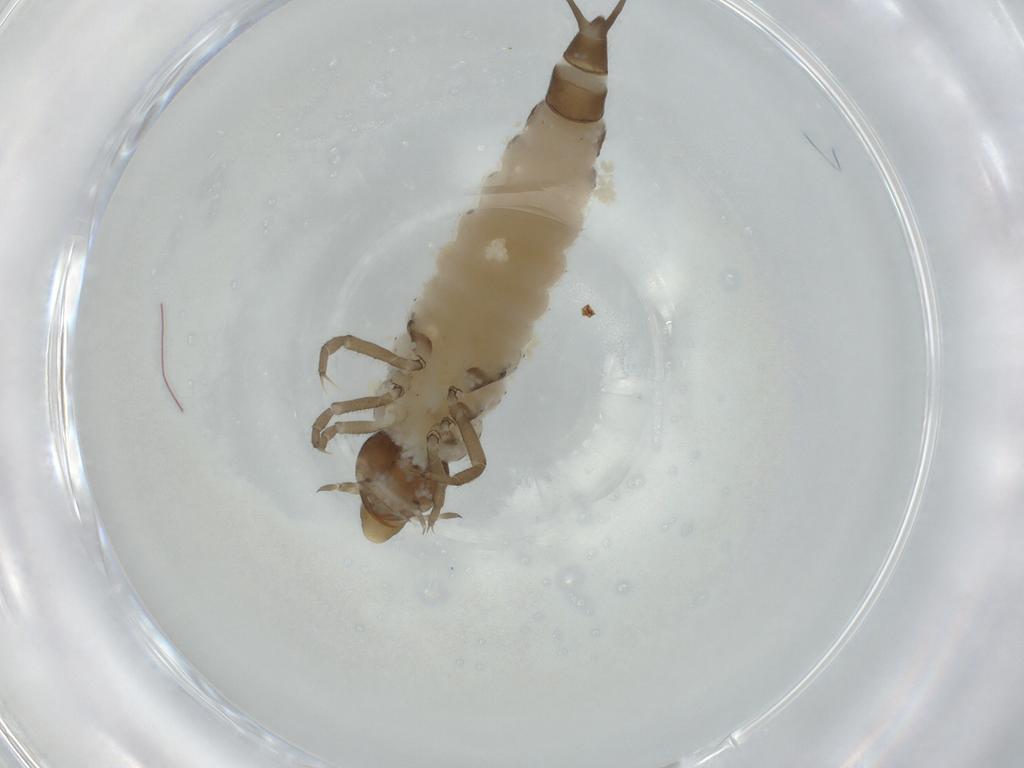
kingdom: Animalia
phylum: Arthropoda
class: Insecta
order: Coleoptera
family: Dytiscidae
